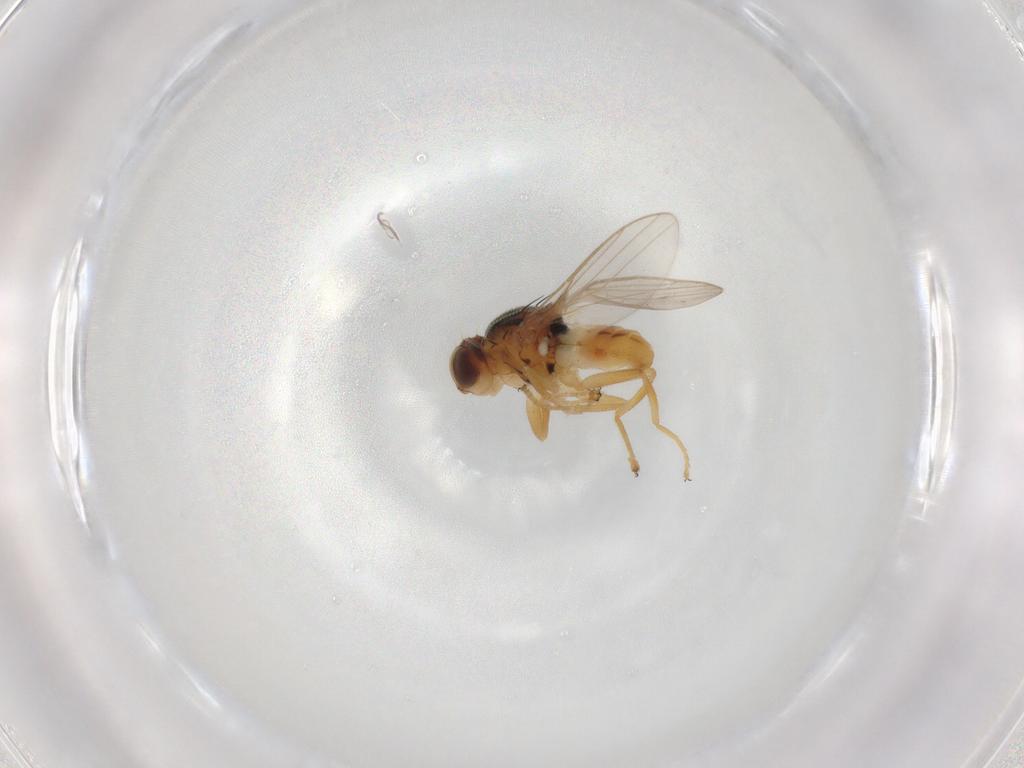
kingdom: Animalia
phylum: Arthropoda
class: Insecta
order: Diptera
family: Chloropidae
